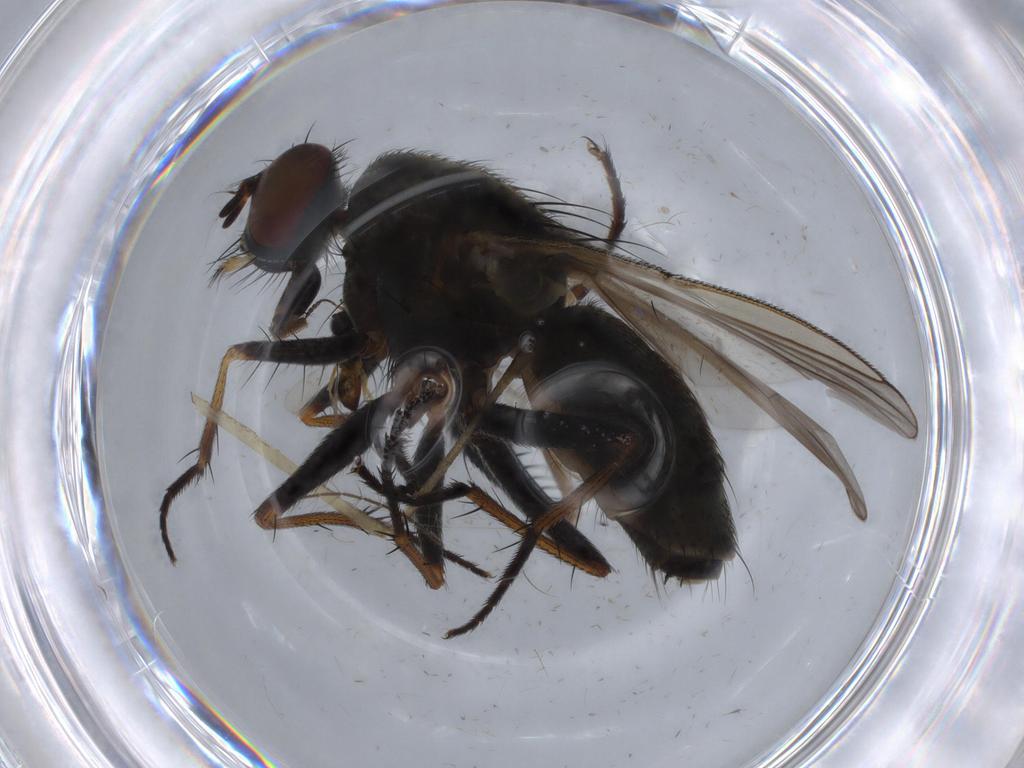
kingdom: Animalia
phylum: Arthropoda
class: Insecta
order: Diptera
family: Muscidae
